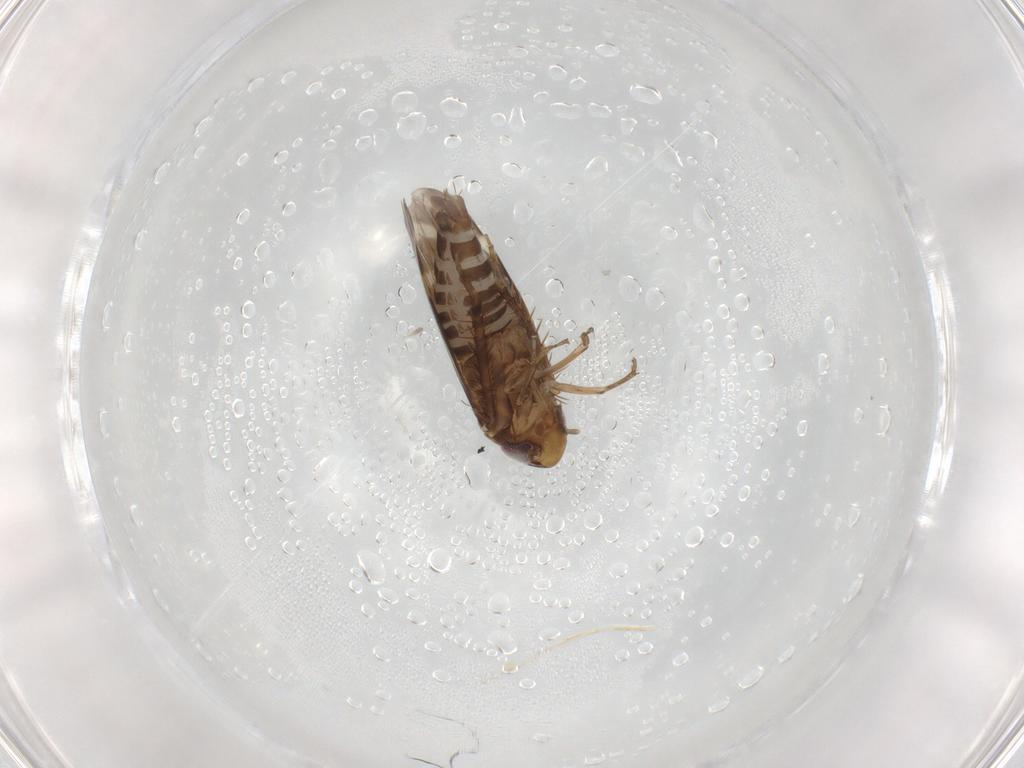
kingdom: Animalia
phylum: Arthropoda
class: Insecta
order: Hemiptera
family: Cicadellidae
